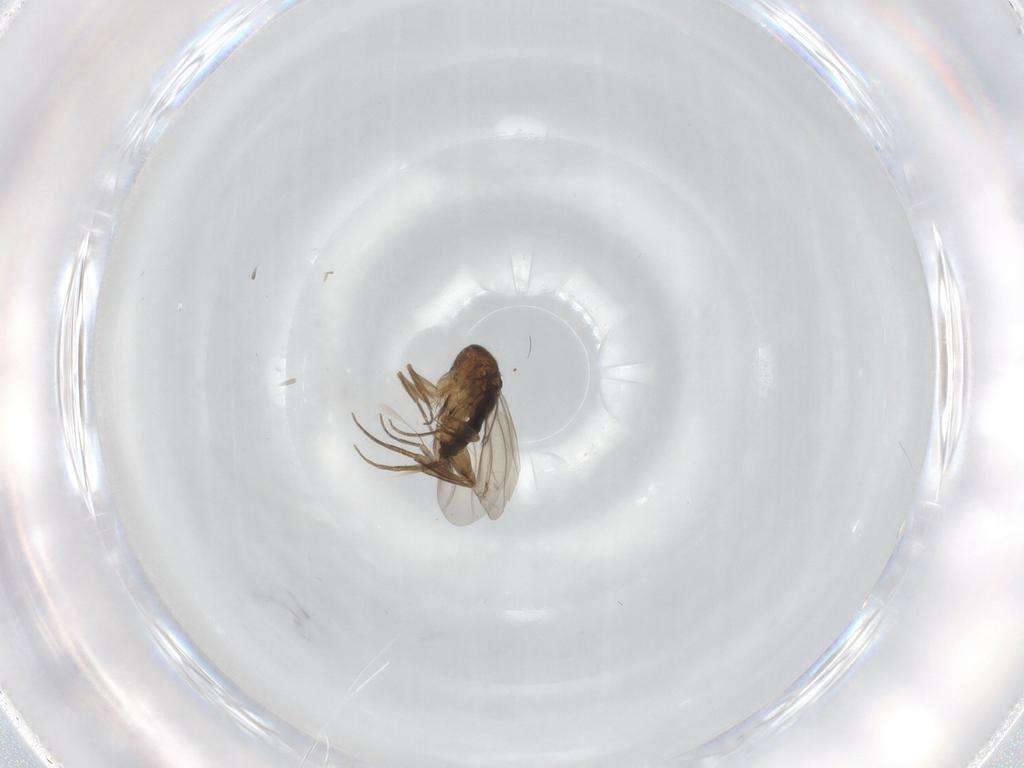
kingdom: Animalia
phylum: Arthropoda
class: Insecta
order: Diptera
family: Phoridae
